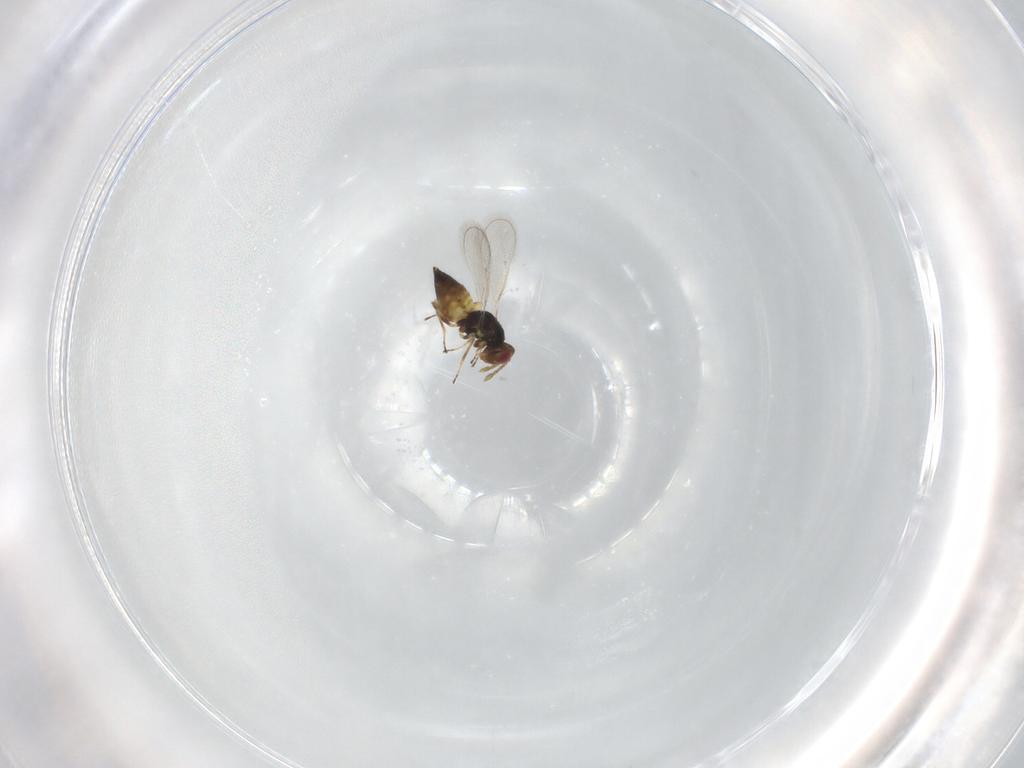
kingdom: Animalia
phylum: Arthropoda
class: Insecta
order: Hymenoptera
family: Eulophidae
